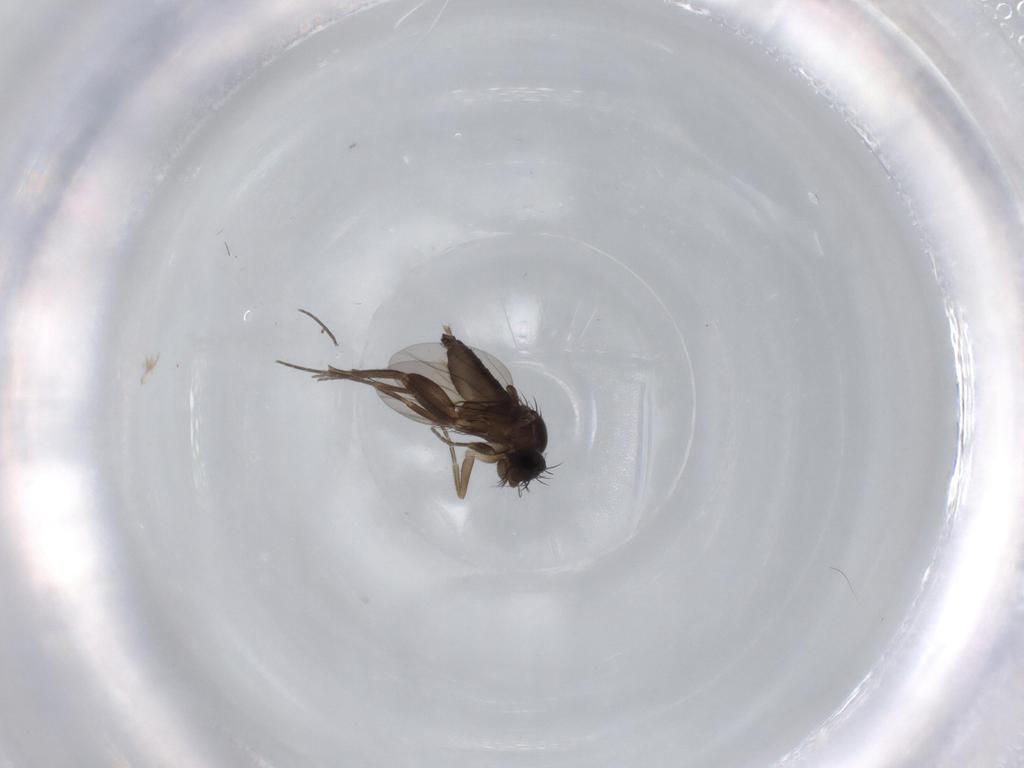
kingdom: Animalia
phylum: Arthropoda
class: Insecta
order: Diptera
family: Phoridae
